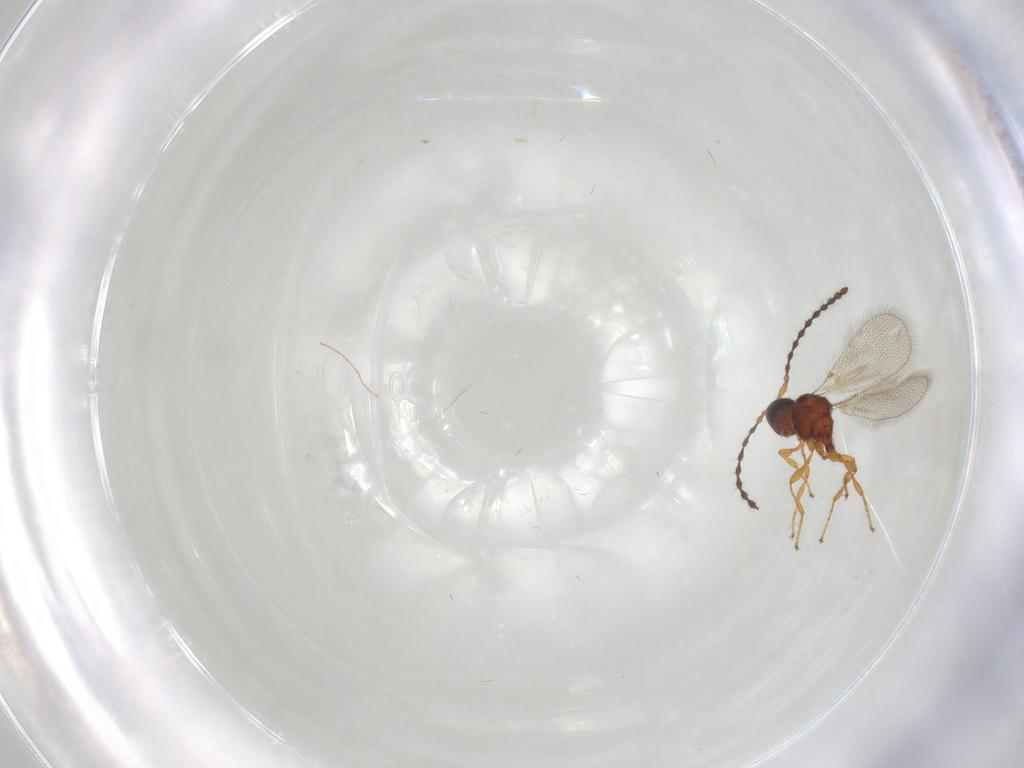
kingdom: Animalia
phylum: Arthropoda
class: Insecta
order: Hymenoptera
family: Diapriidae
